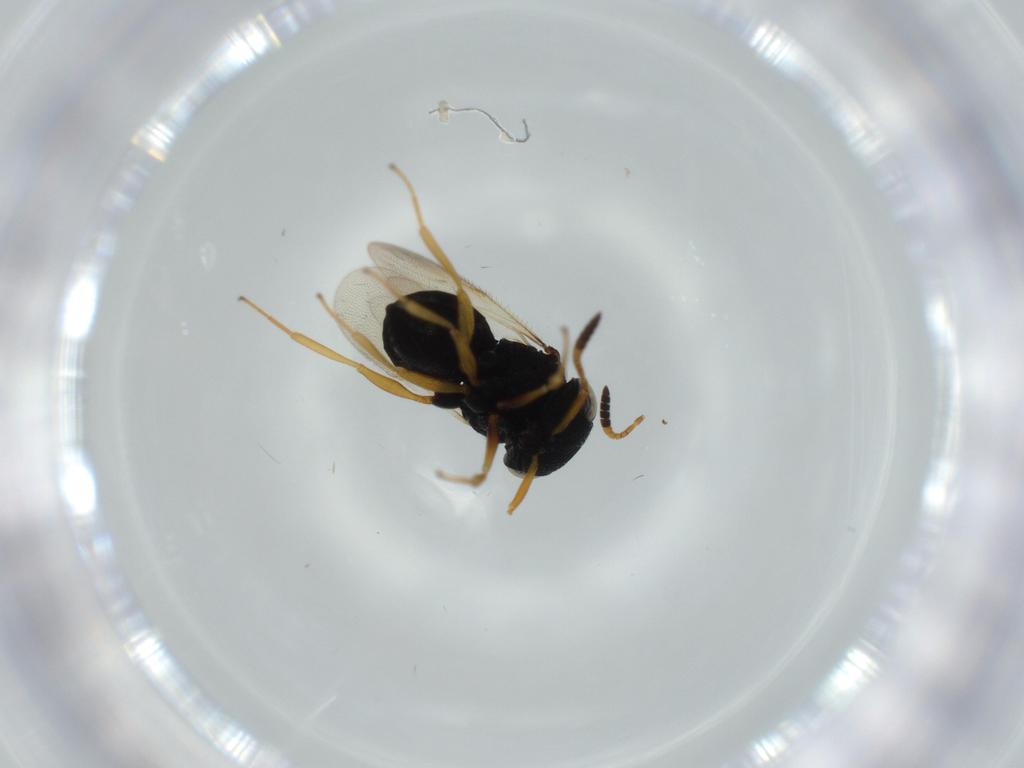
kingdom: Animalia
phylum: Arthropoda
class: Insecta
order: Hymenoptera
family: Scelionidae
